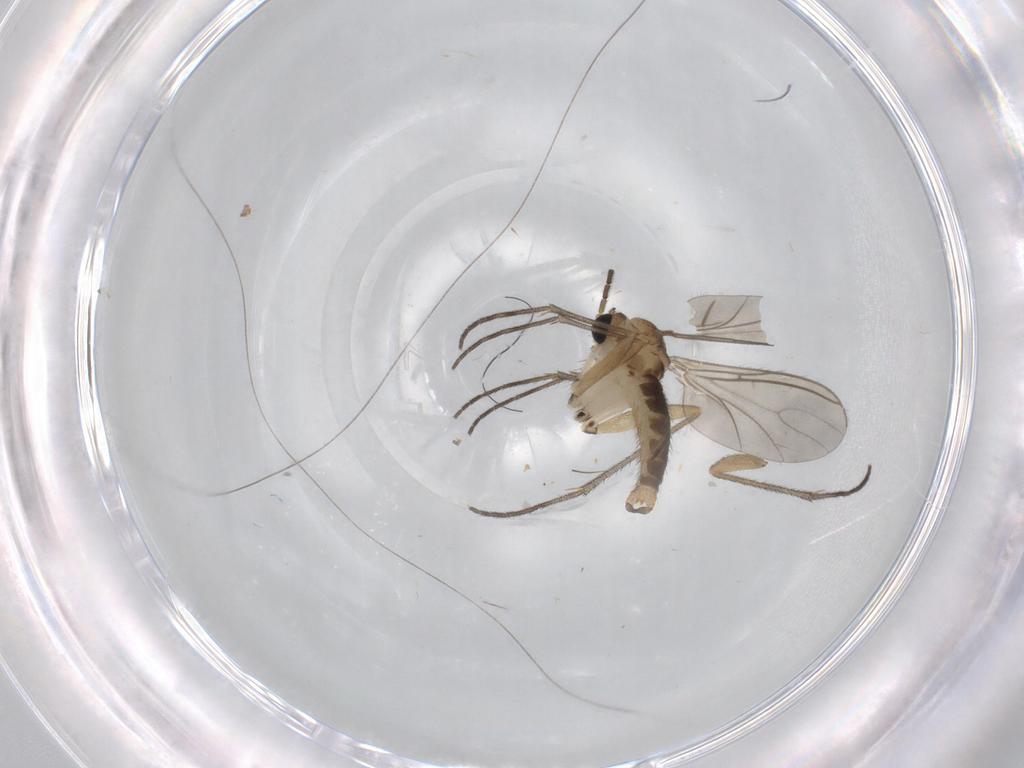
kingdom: Animalia
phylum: Arthropoda
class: Insecta
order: Diptera
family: Sciaridae
